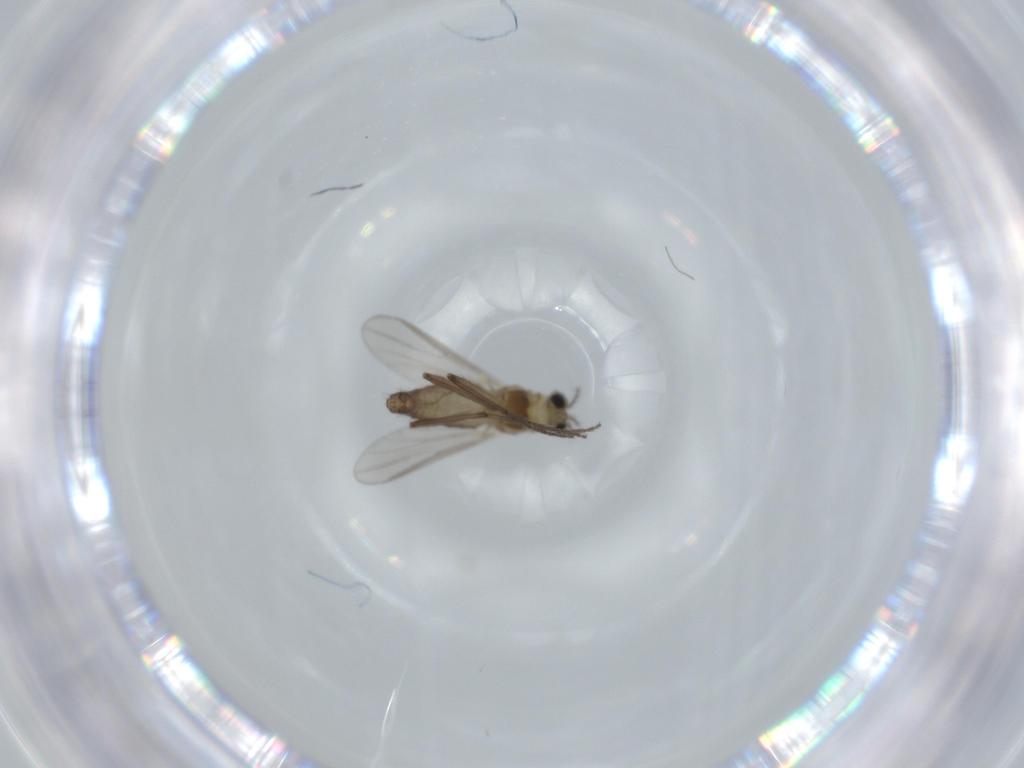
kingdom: Animalia
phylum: Arthropoda
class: Insecta
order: Diptera
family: Chironomidae
